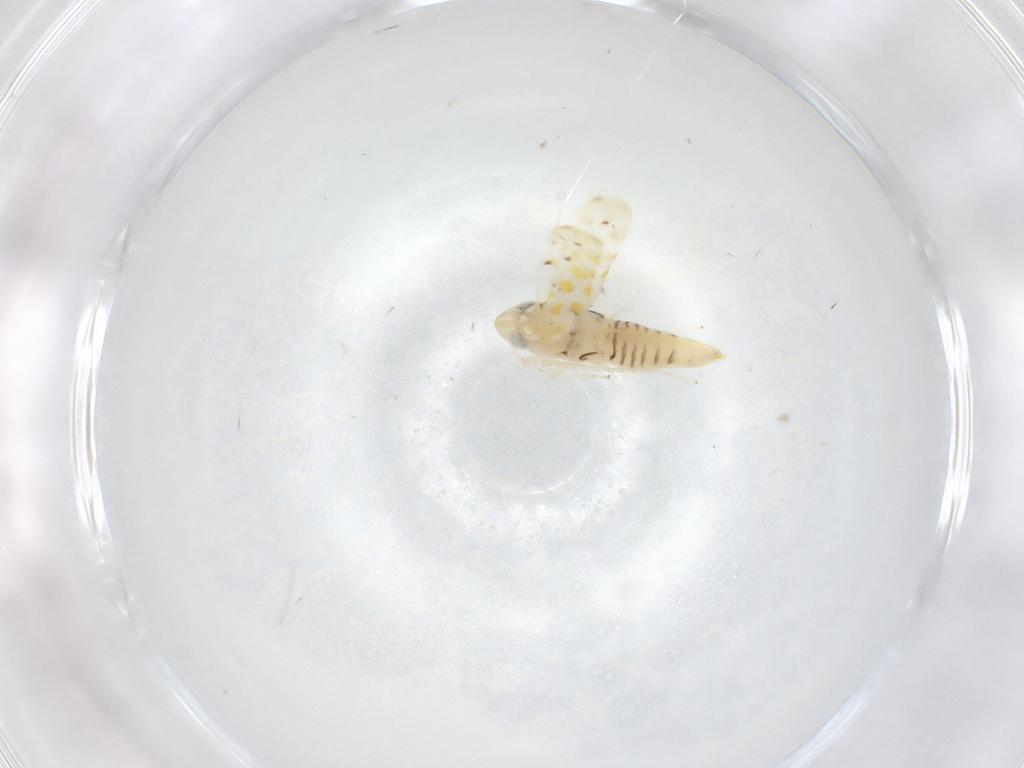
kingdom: Animalia
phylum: Arthropoda
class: Insecta
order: Hemiptera
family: Cicadellidae
